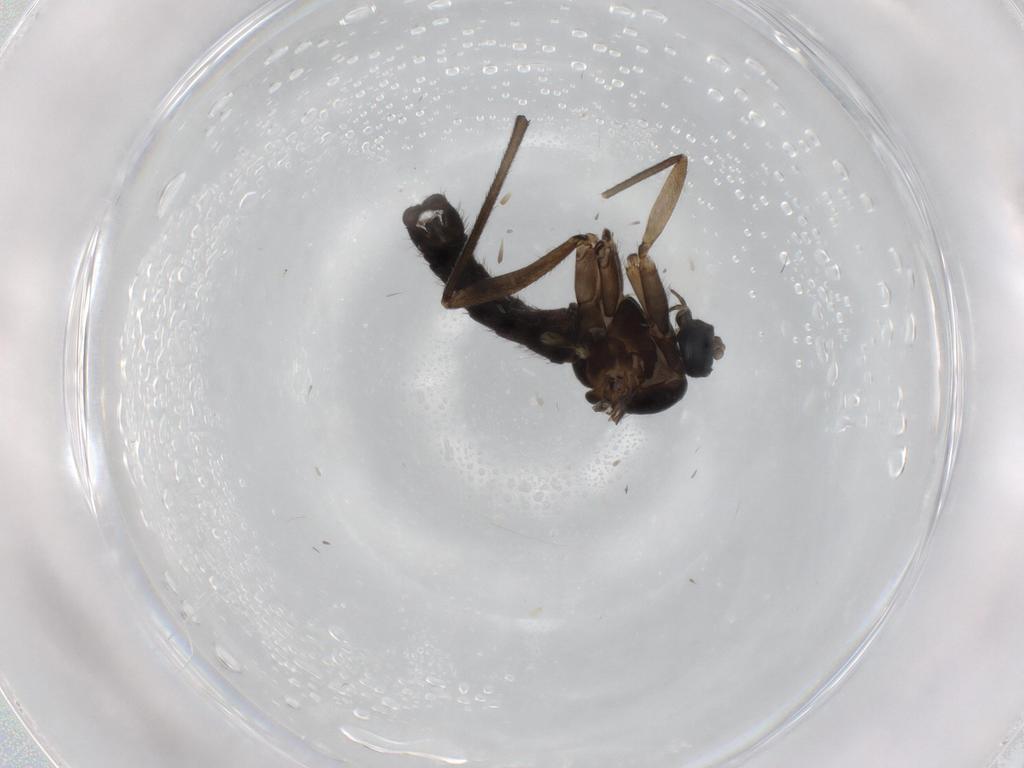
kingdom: Animalia
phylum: Arthropoda
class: Insecta
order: Diptera
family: Sciaridae
